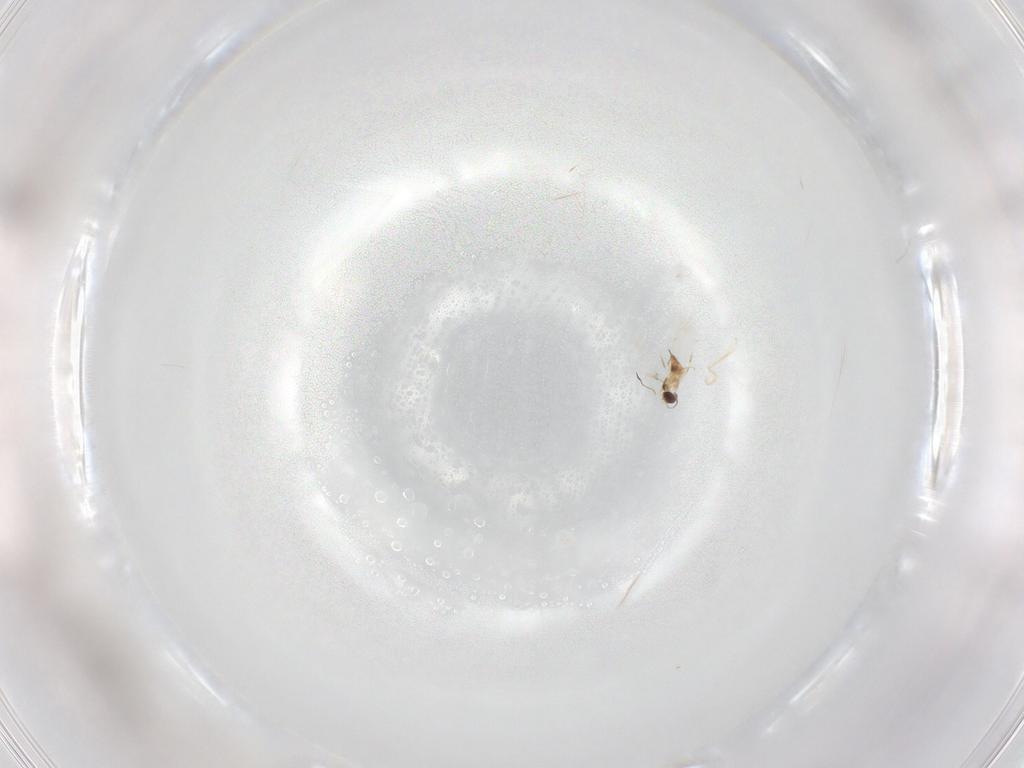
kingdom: Animalia
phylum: Arthropoda
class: Insecta
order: Hymenoptera
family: Mymaridae
